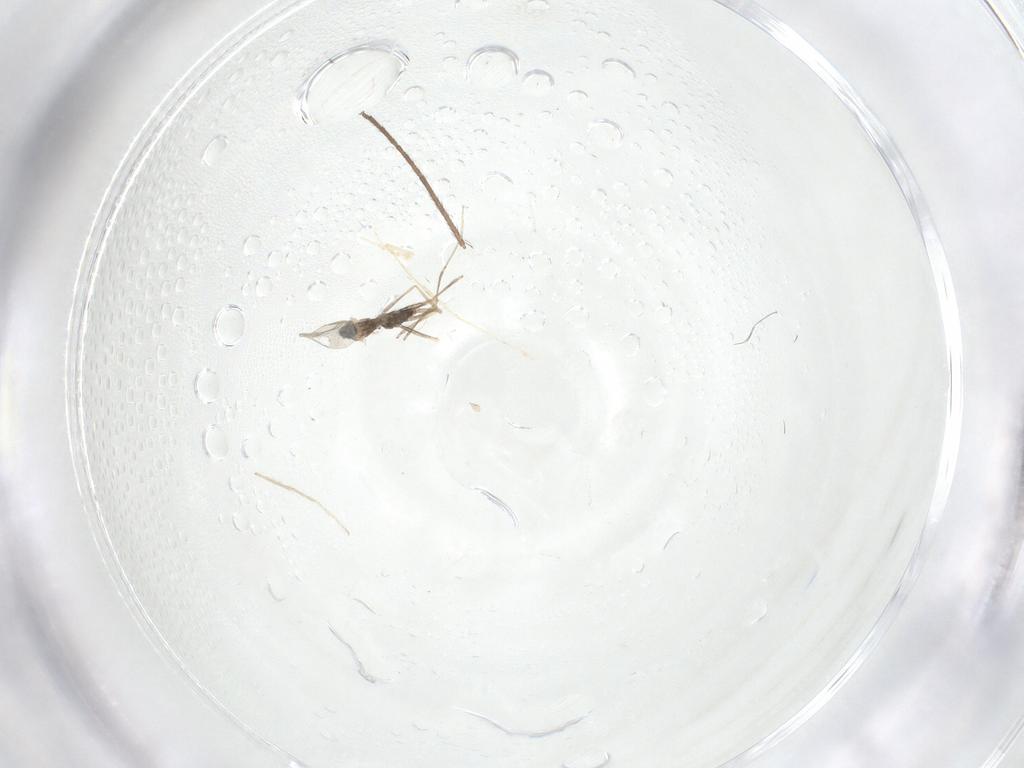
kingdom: Animalia
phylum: Arthropoda
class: Insecta
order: Diptera
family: Chironomidae
